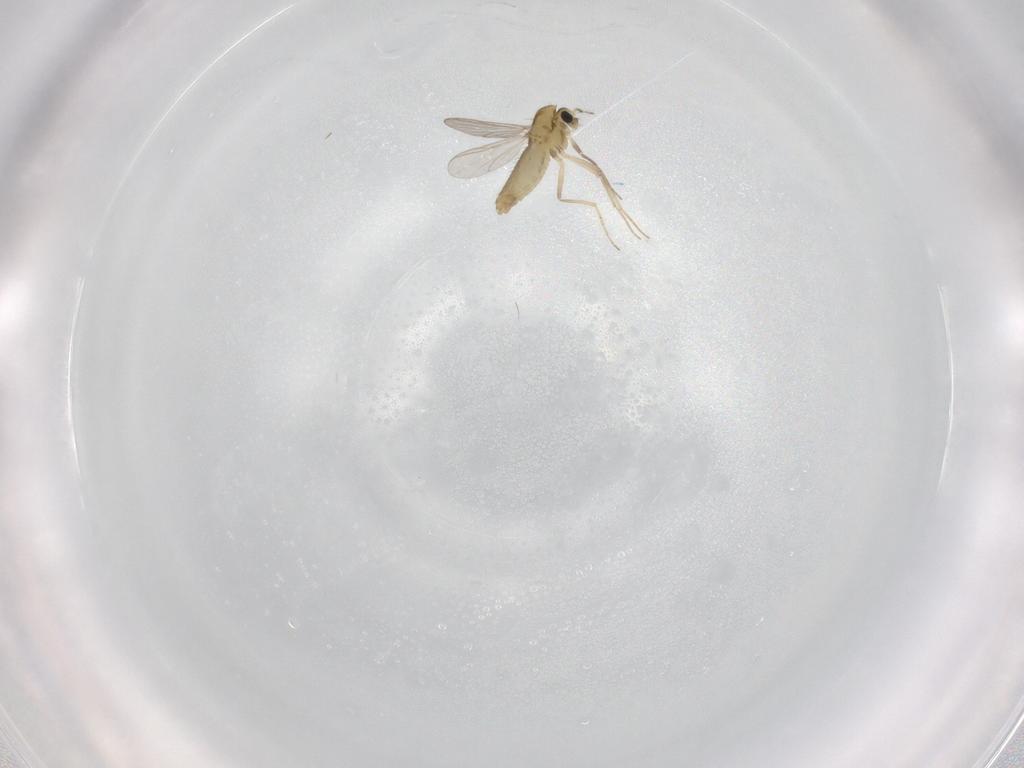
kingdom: Animalia
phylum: Arthropoda
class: Insecta
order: Diptera
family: Chironomidae
